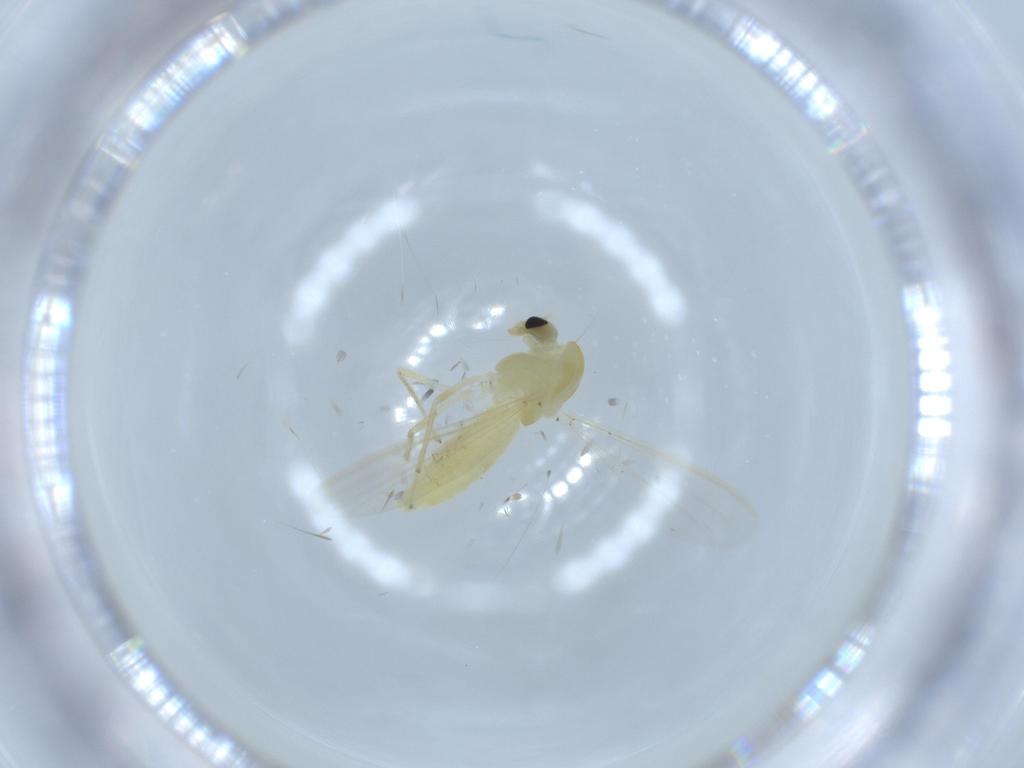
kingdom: Animalia
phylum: Arthropoda
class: Insecta
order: Diptera
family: Chironomidae
